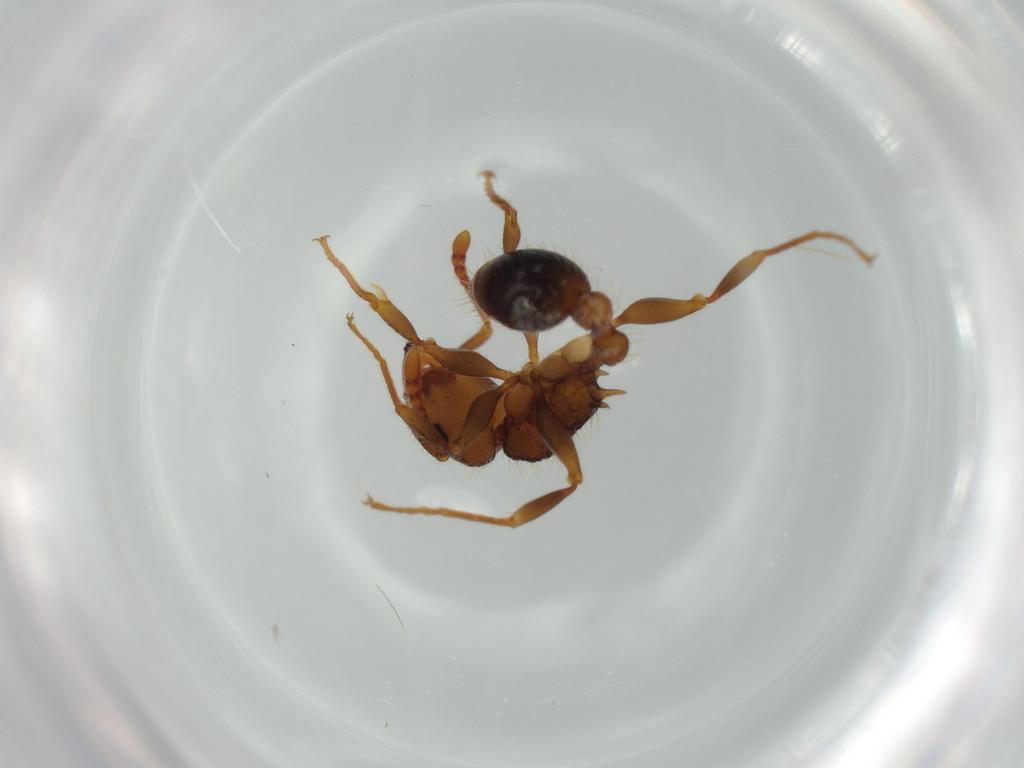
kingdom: Animalia
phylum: Arthropoda
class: Insecta
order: Hymenoptera
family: Formicidae
